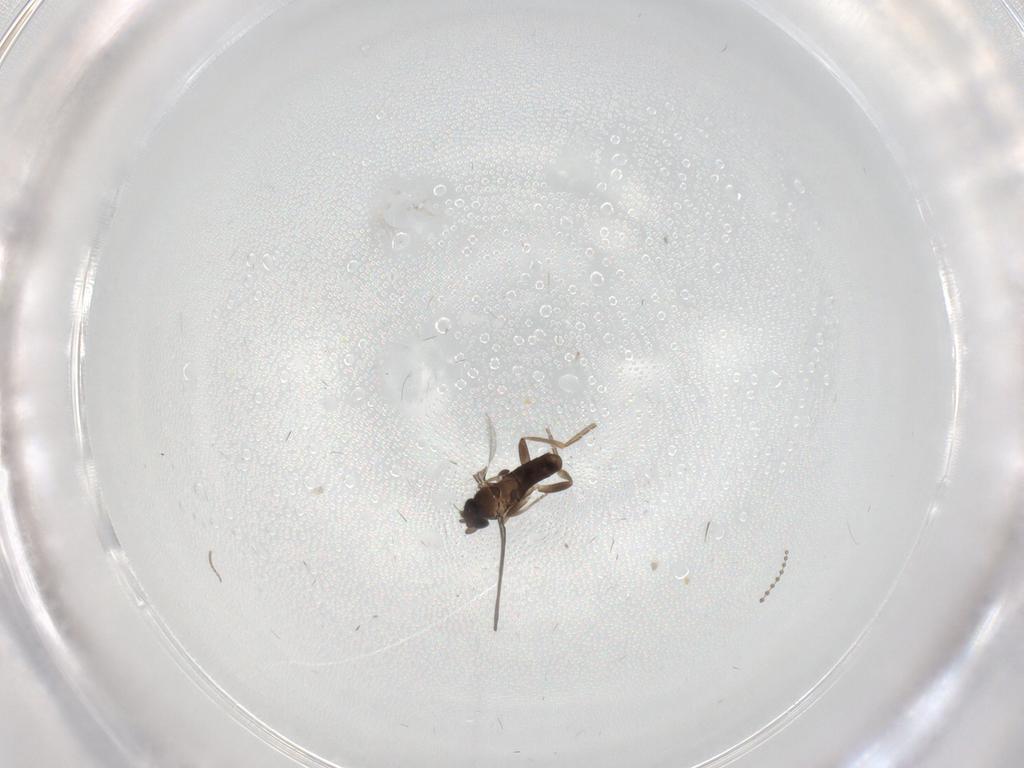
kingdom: Animalia
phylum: Arthropoda
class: Insecta
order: Diptera
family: Psychodidae
